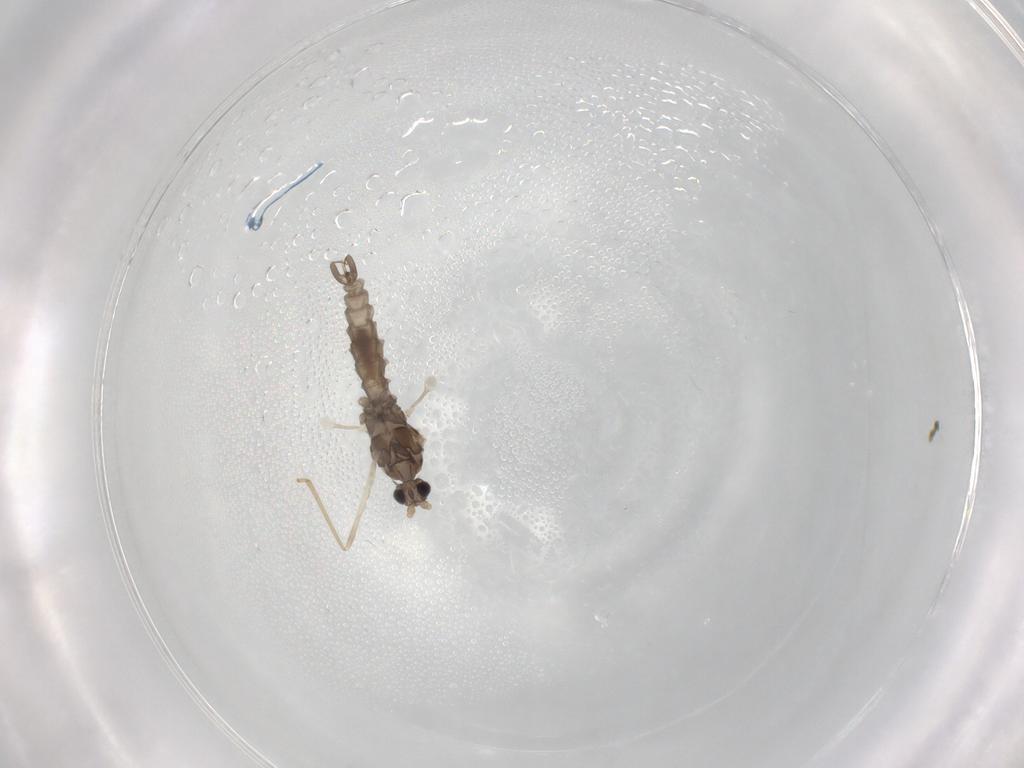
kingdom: Animalia
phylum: Arthropoda
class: Insecta
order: Diptera
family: Cecidomyiidae
